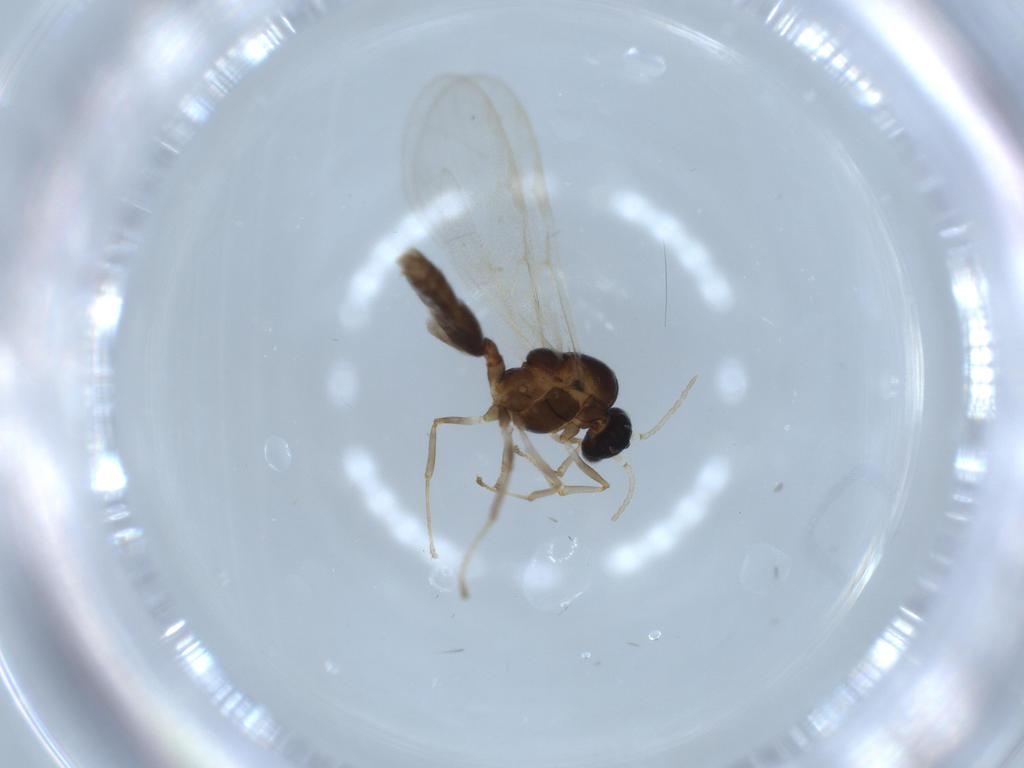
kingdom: Animalia
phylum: Arthropoda
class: Insecta
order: Hymenoptera
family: Formicidae
